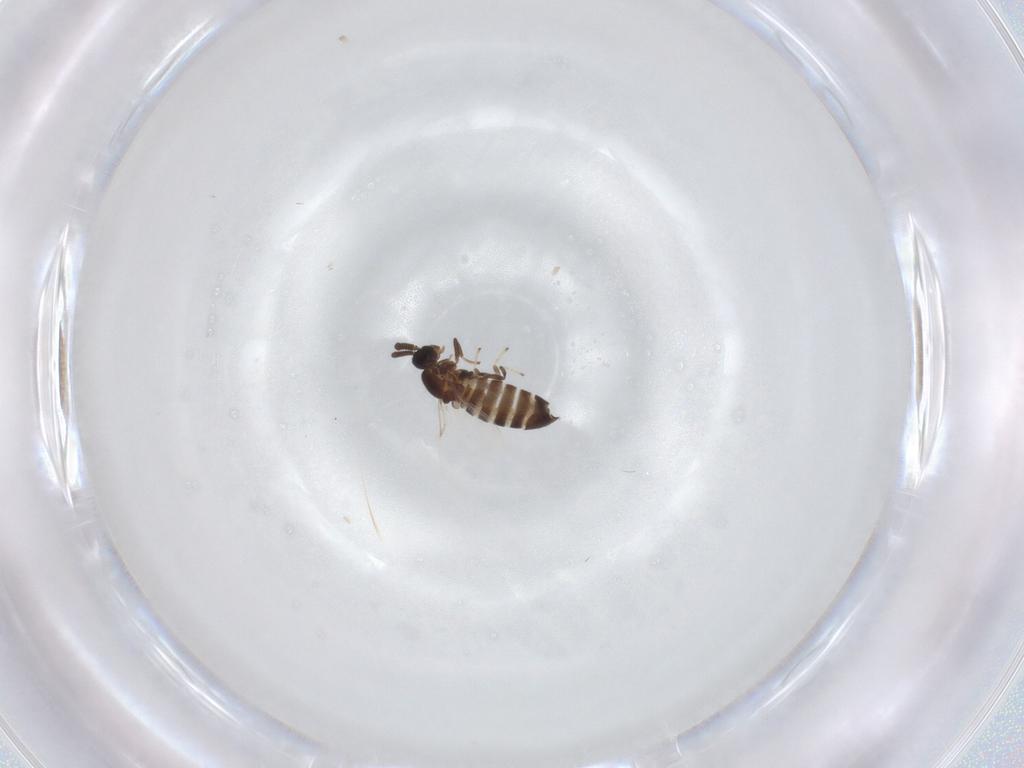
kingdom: Animalia
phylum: Arthropoda
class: Insecta
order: Diptera
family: Scatopsidae
